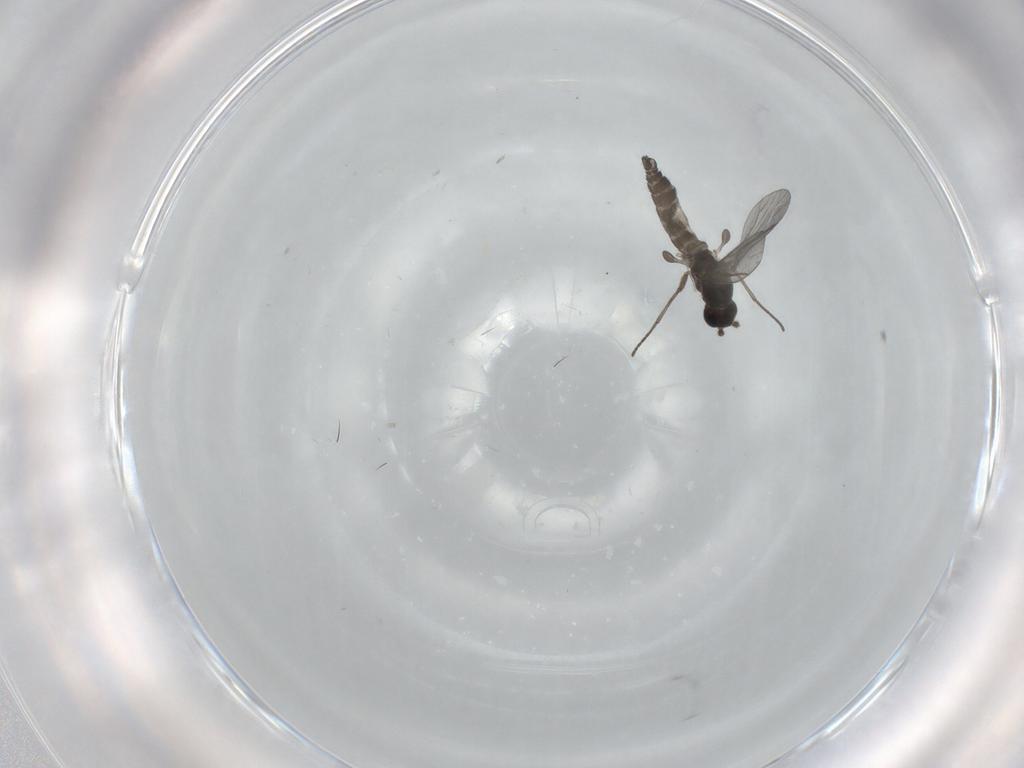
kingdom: Animalia
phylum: Arthropoda
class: Insecta
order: Diptera
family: Cecidomyiidae
